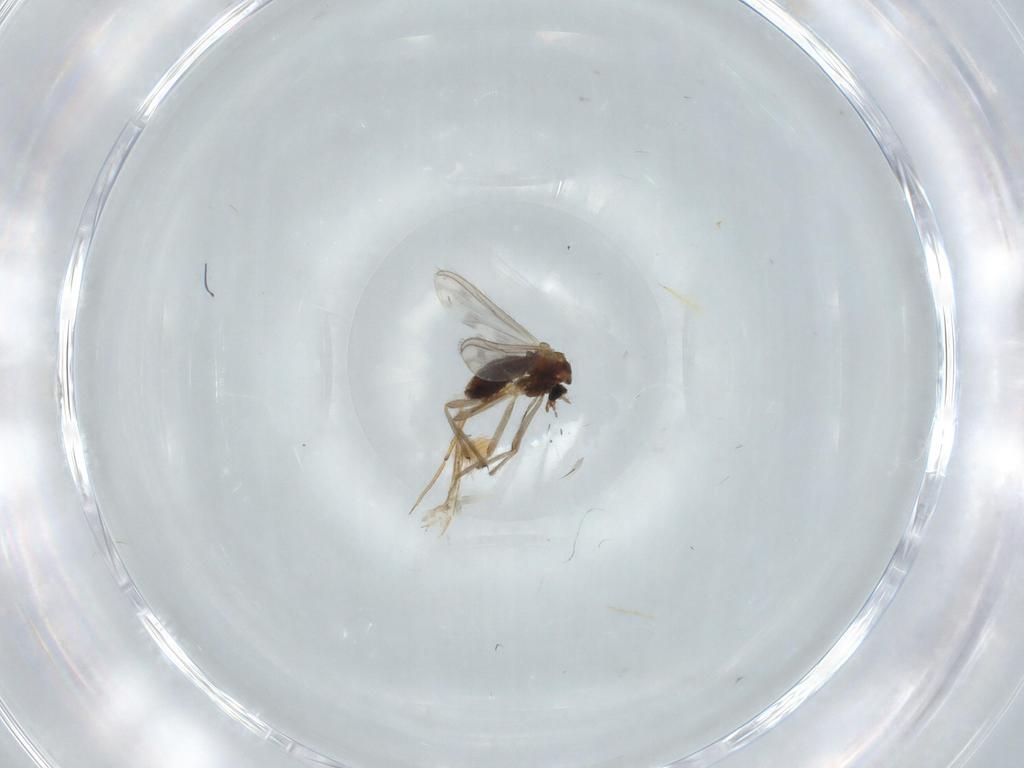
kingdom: Animalia
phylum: Arthropoda
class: Insecta
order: Diptera
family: Chironomidae
